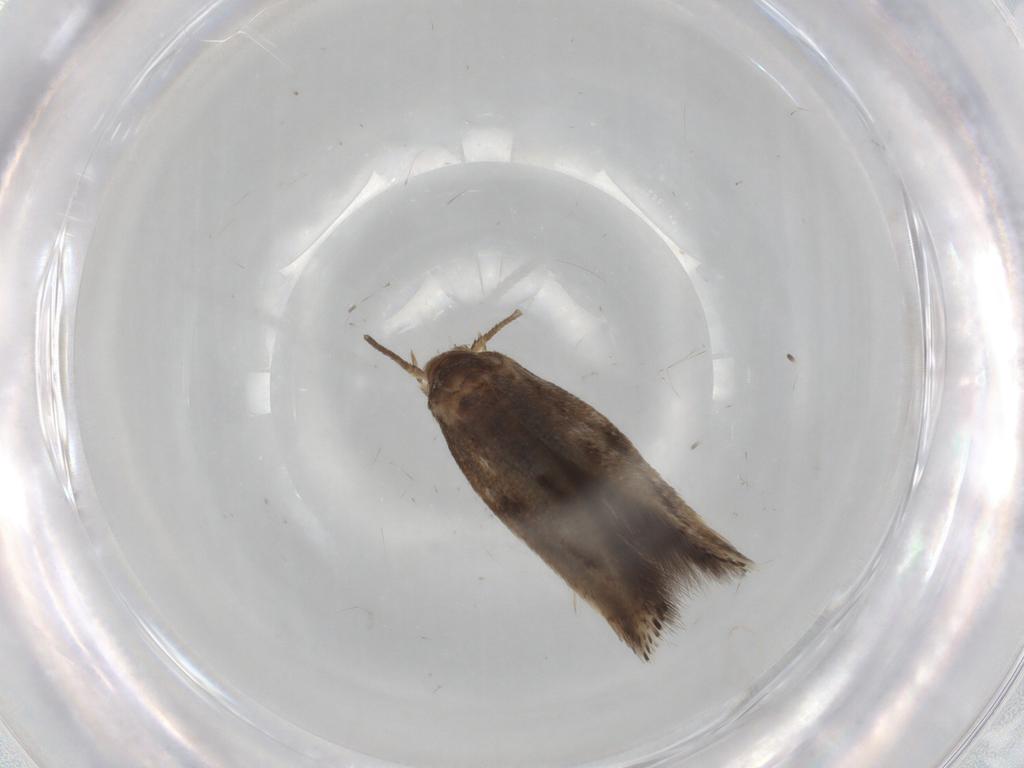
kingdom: Animalia
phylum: Arthropoda
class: Insecta
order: Lepidoptera
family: Elachistidae
